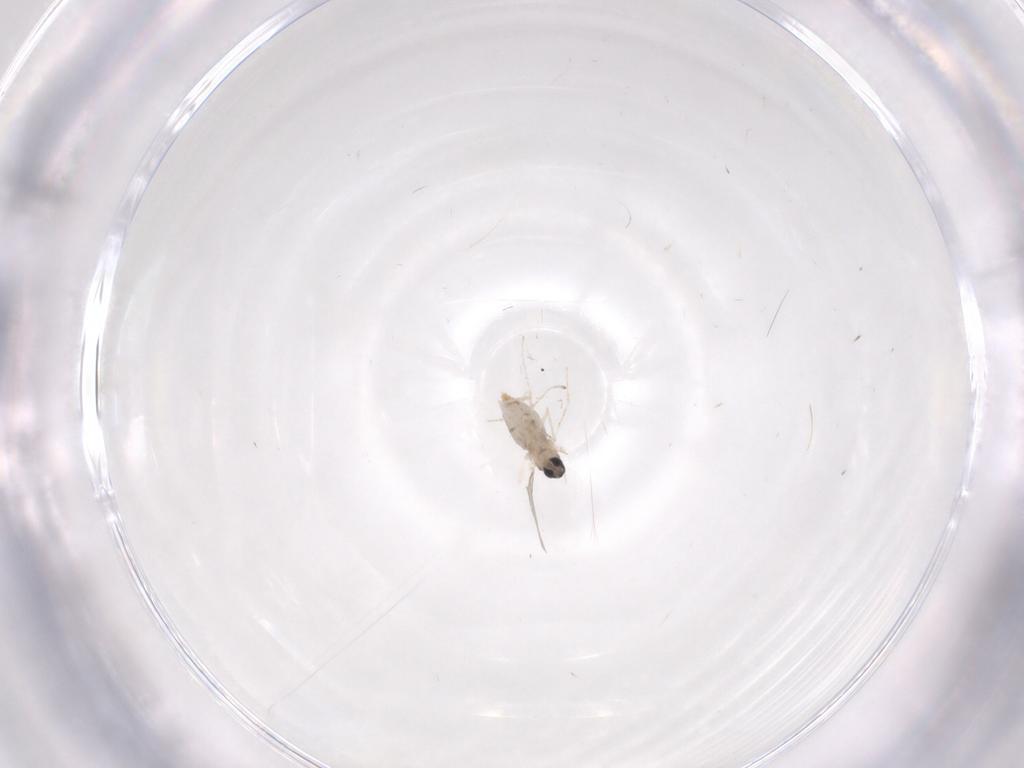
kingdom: Animalia
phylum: Arthropoda
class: Insecta
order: Diptera
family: Cecidomyiidae
